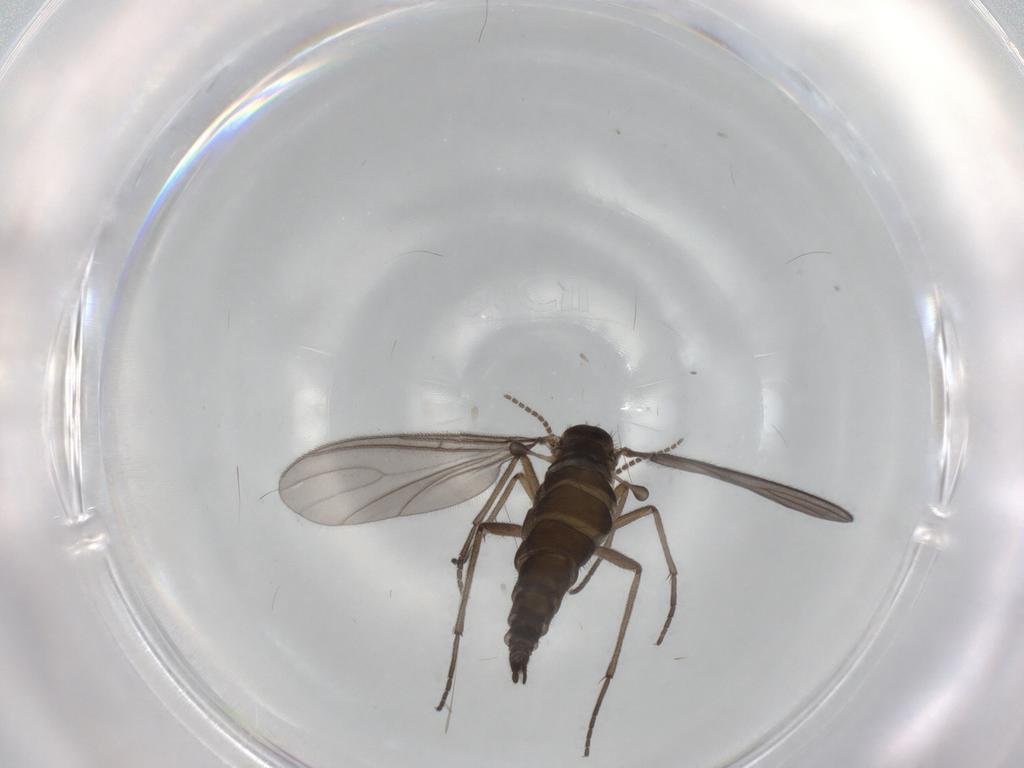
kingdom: Animalia
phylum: Arthropoda
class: Insecta
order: Diptera
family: Sciaridae
